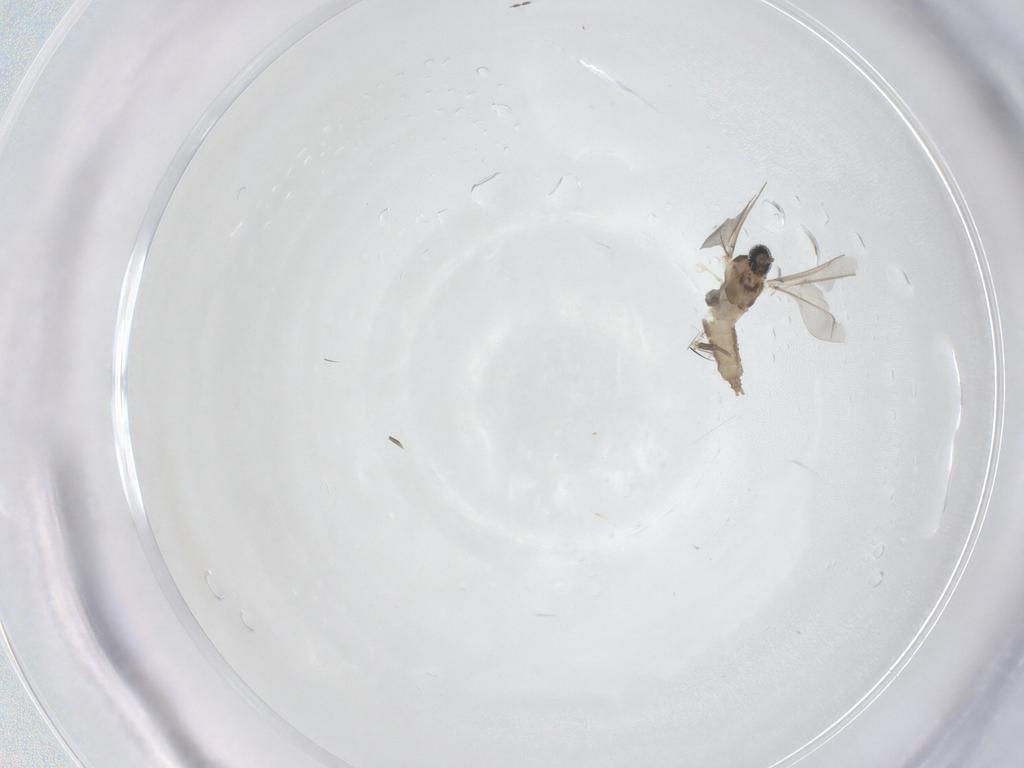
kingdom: Animalia
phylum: Arthropoda
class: Insecta
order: Diptera
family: Cecidomyiidae
